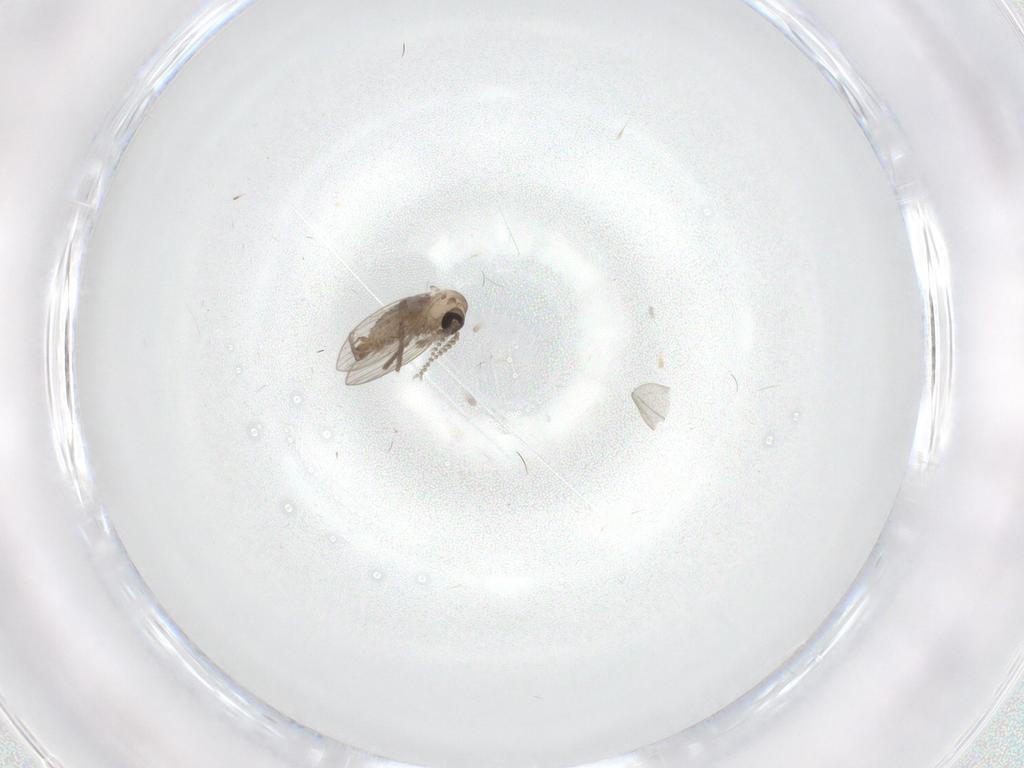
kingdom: Animalia
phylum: Arthropoda
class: Insecta
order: Diptera
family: Psychodidae
